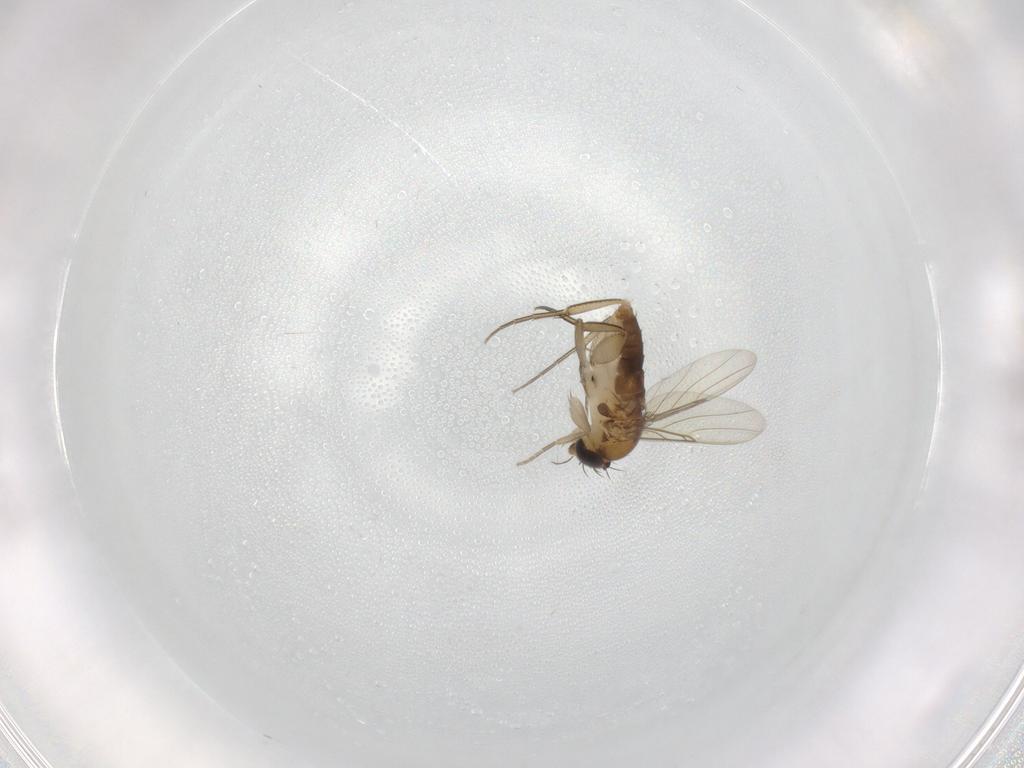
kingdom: Animalia
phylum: Arthropoda
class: Insecta
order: Diptera
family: Phoridae
